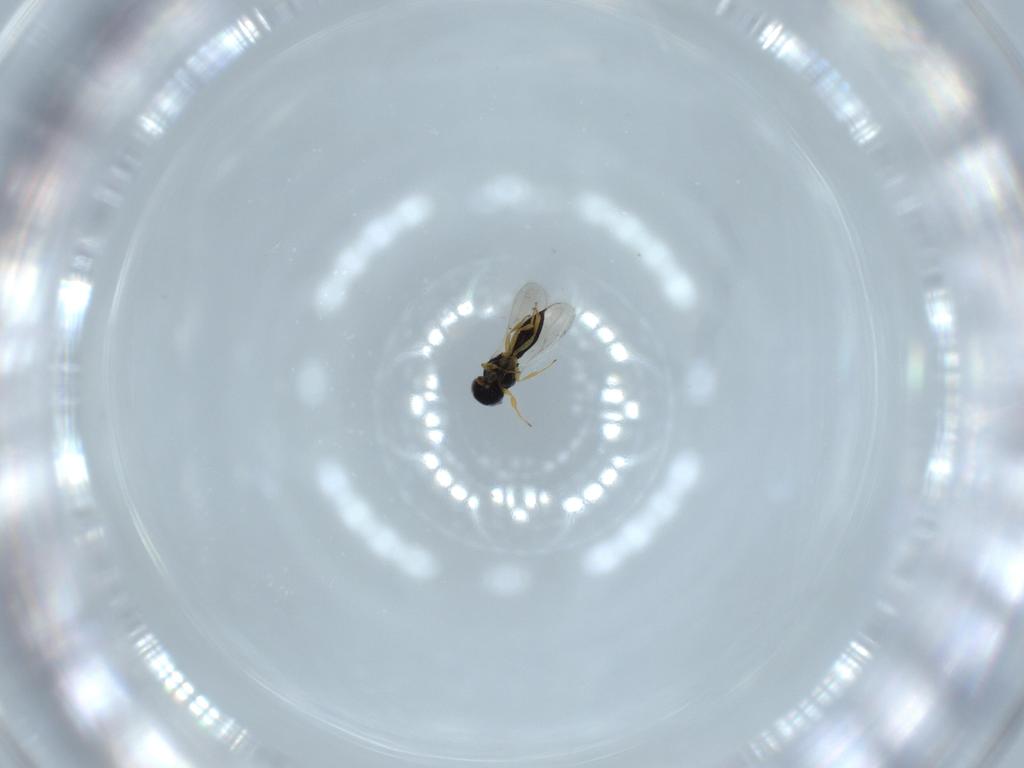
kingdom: Animalia
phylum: Arthropoda
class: Insecta
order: Hymenoptera
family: Scelionidae
